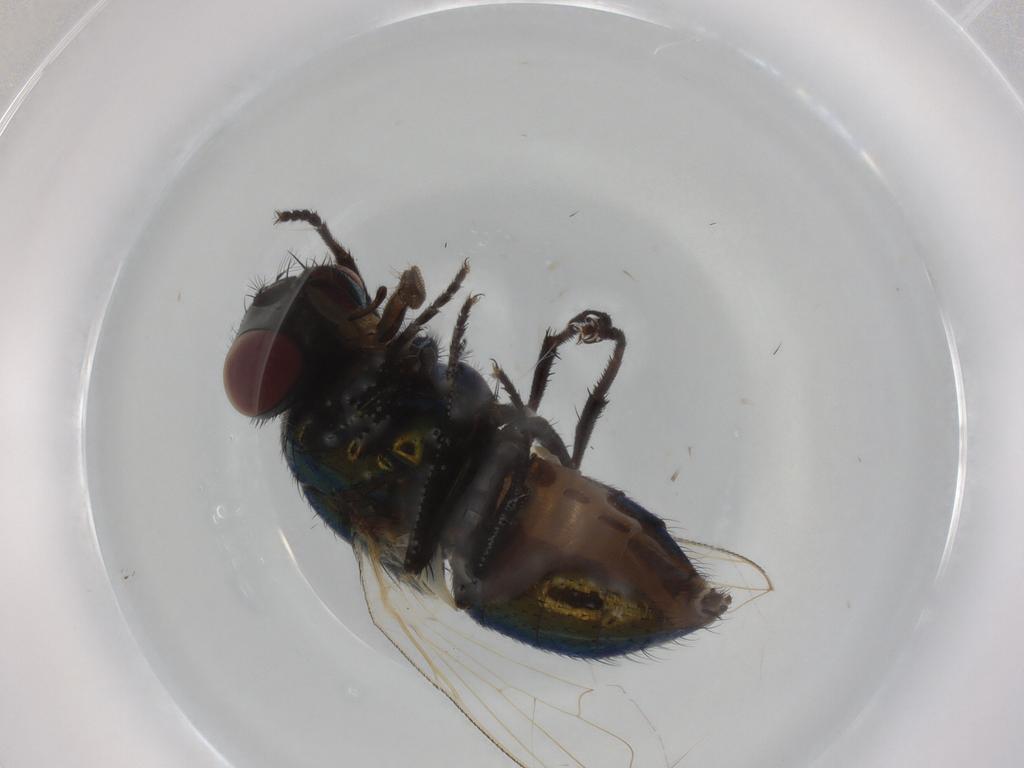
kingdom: Animalia
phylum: Arthropoda
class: Insecta
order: Diptera
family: Muscidae
